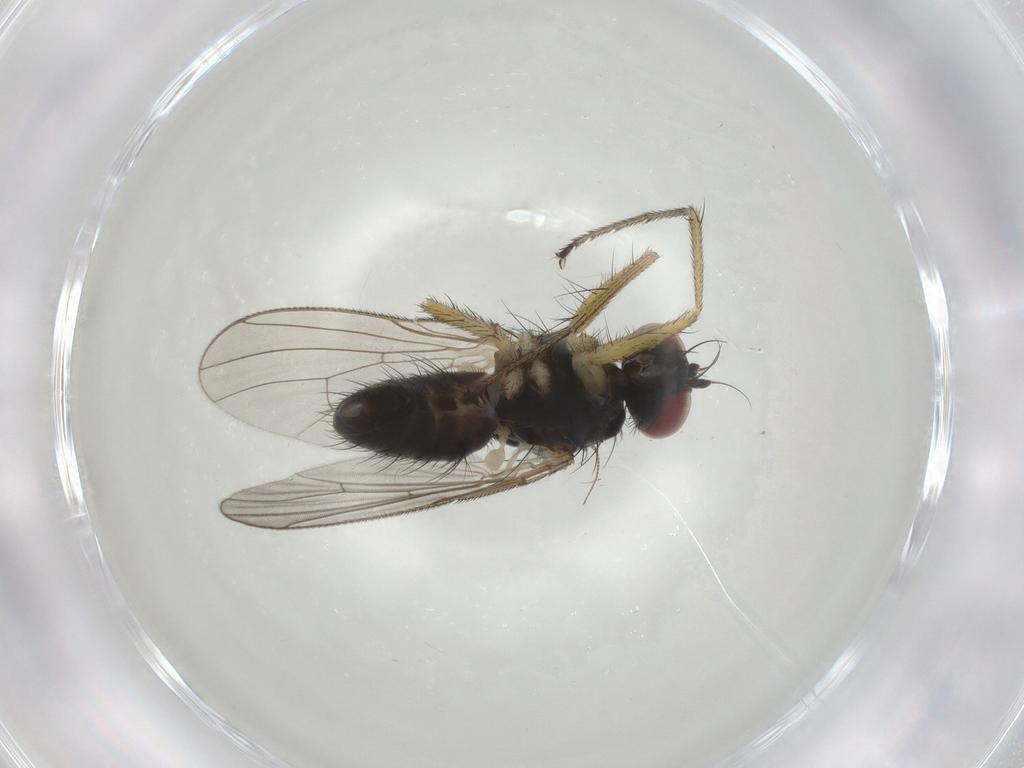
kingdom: Animalia
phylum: Arthropoda
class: Insecta
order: Diptera
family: Muscidae
